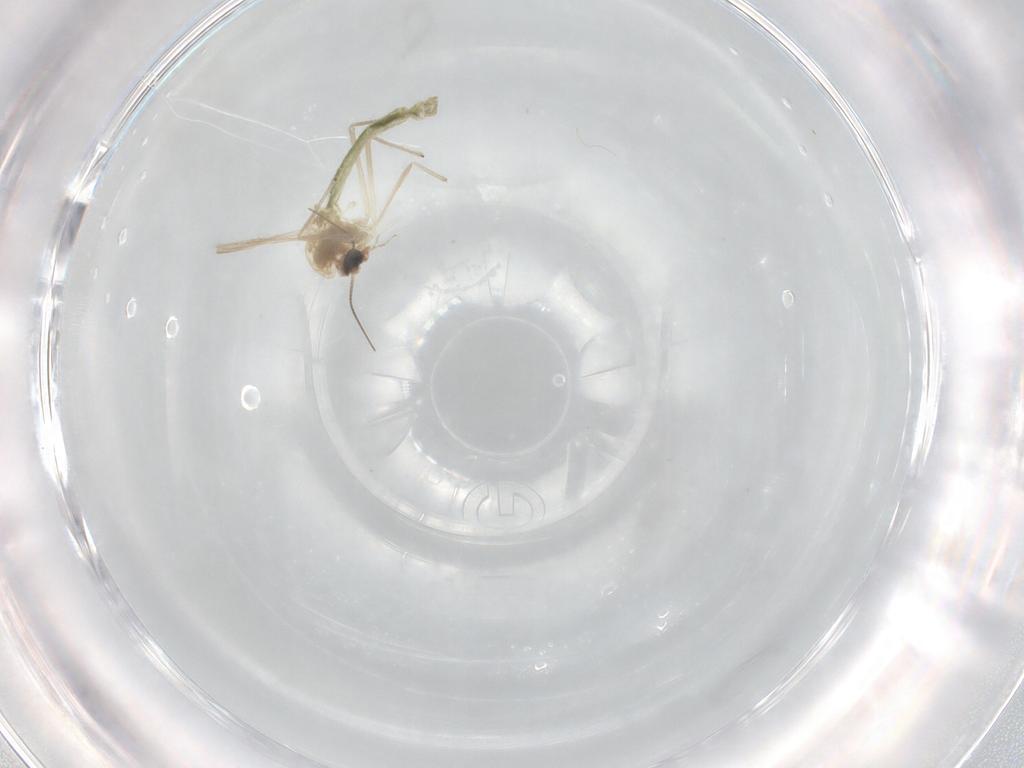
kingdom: Animalia
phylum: Arthropoda
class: Insecta
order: Diptera
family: Chironomidae
